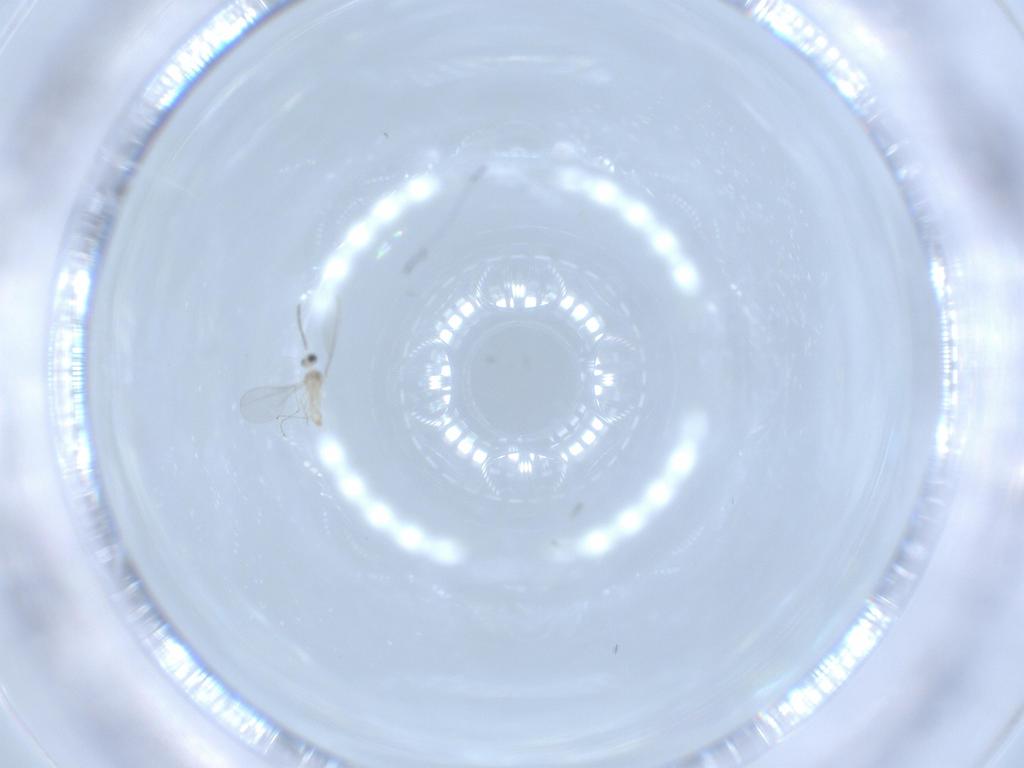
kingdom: Animalia
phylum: Arthropoda
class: Insecta
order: Diptera
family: Cecidomyiidae
